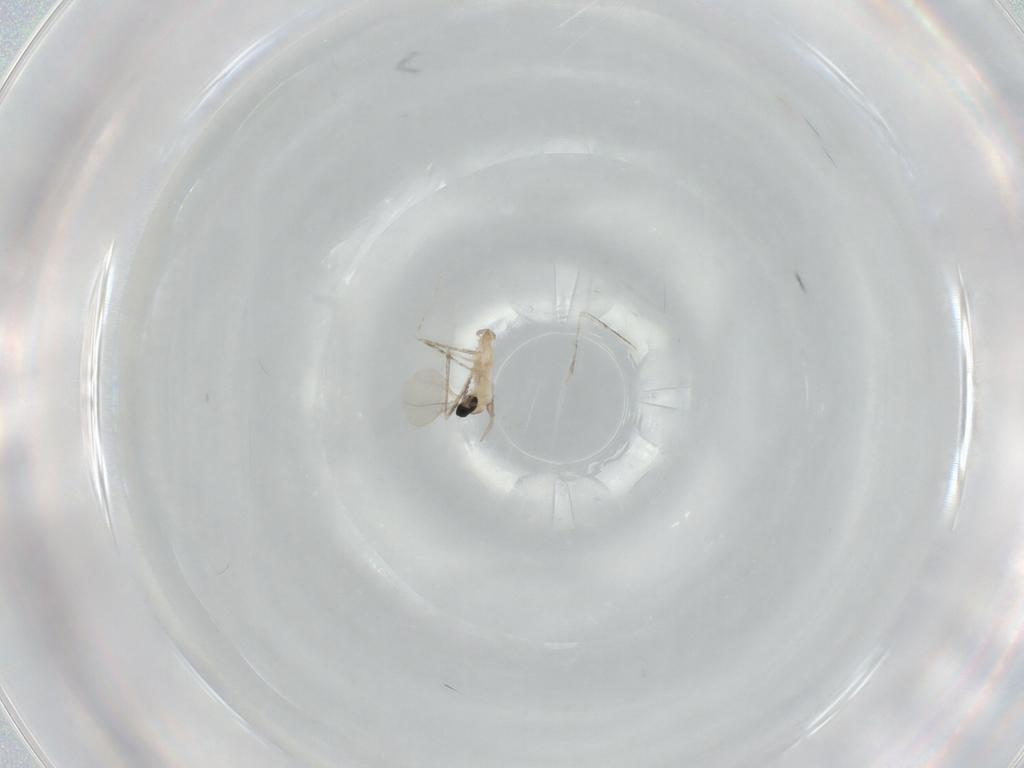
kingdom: Animalia
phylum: Arthropoda
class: Insecta
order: Diptera
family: Cecidomyiidae
